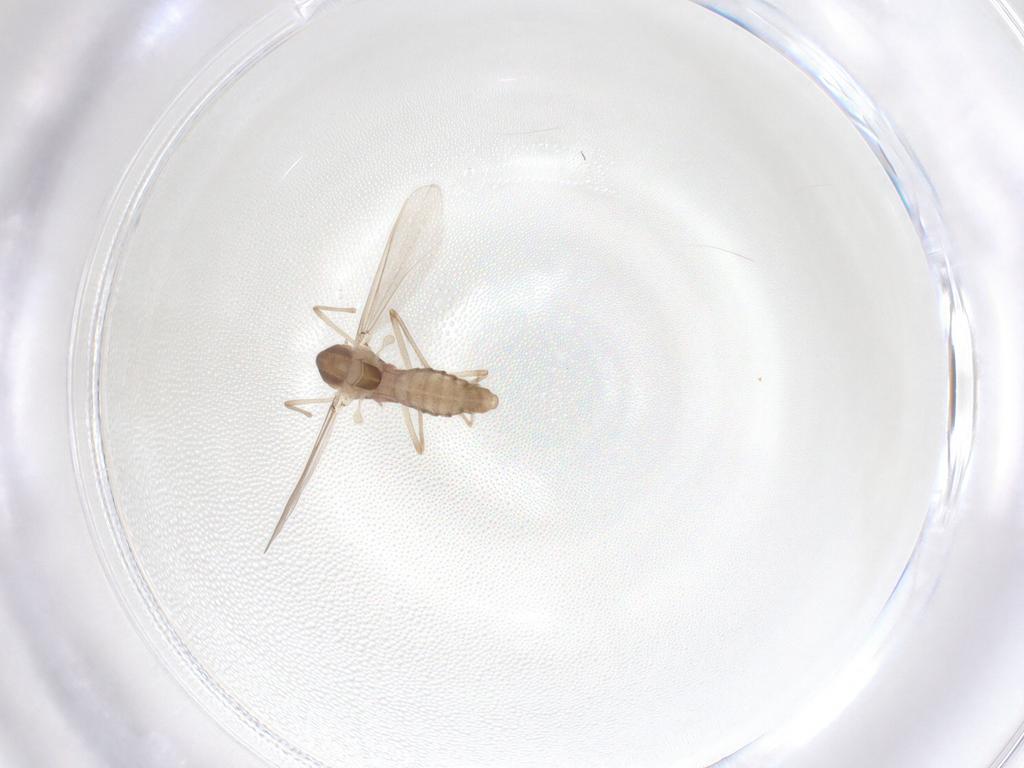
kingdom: Animalia
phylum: Arthropoda
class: Insecta
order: Diptera
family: Chironomidae
